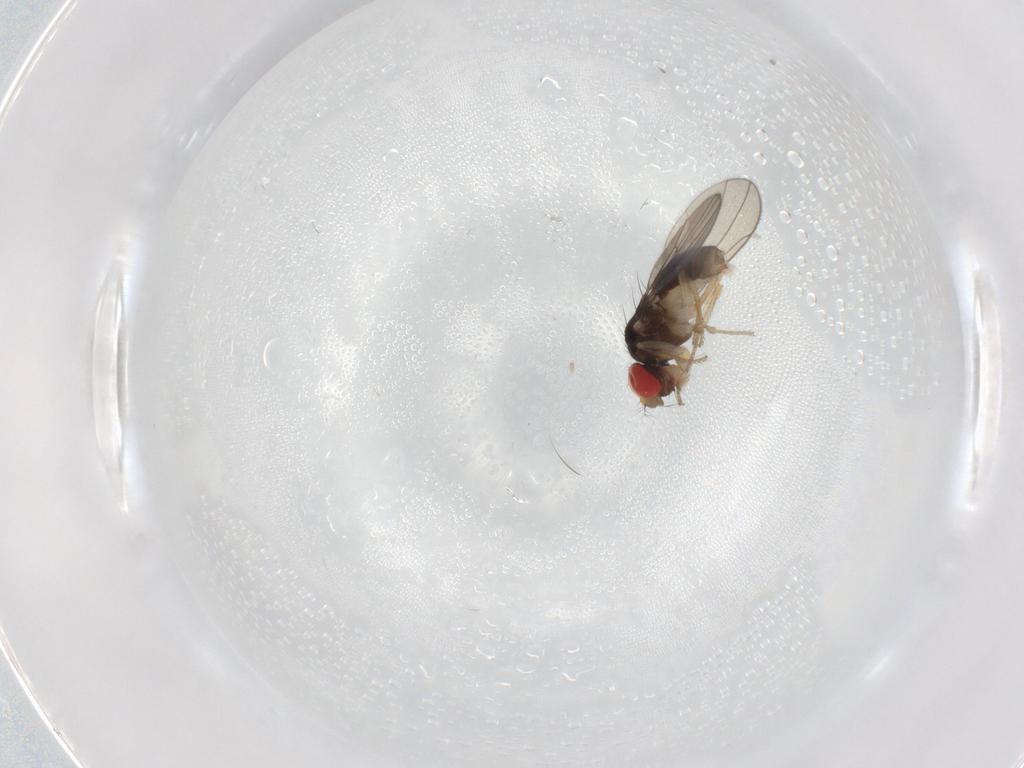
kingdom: Animalia
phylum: Arthropoda
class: Insecta
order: Diptera
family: Drosophilidae
